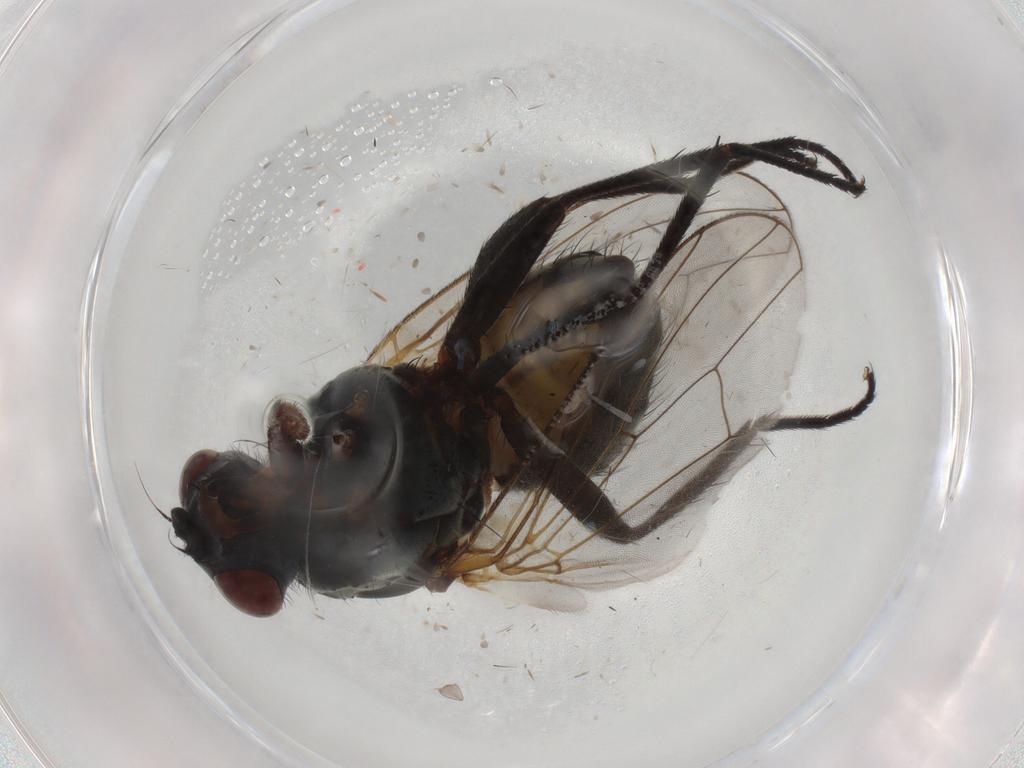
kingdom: Animalia
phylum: Arthropoda
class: Insecta
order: Diptera
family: Anthomyiidae
